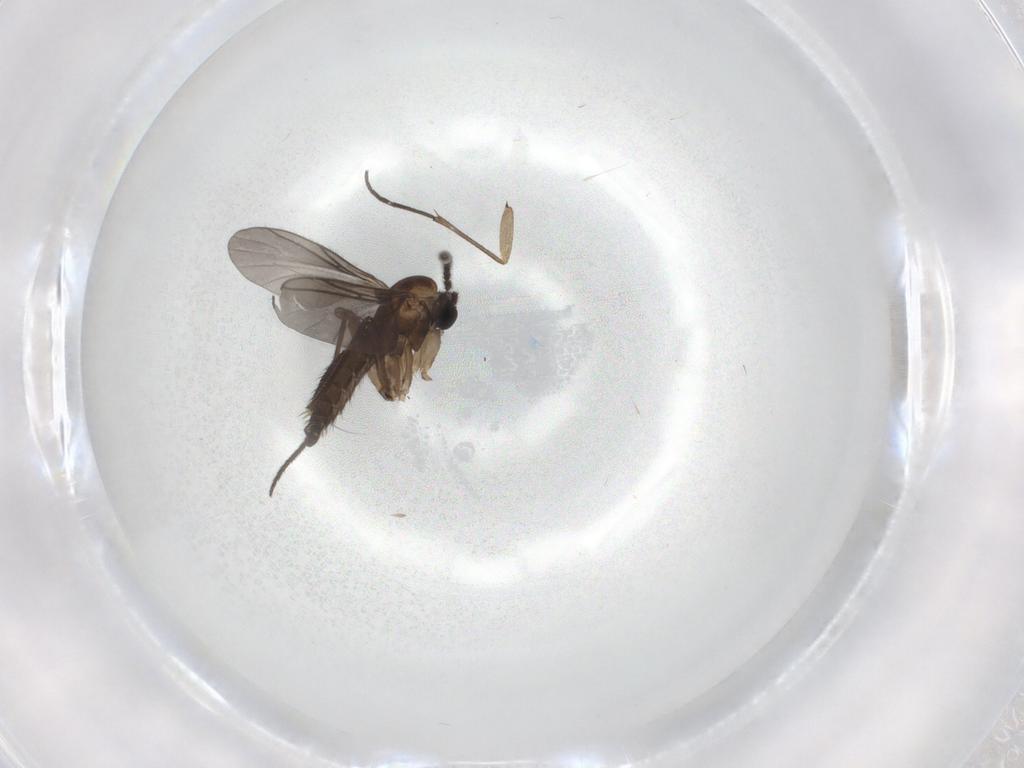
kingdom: Animalia
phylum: Arthropoda
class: Insecta
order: Diptera
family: Sciaridae
